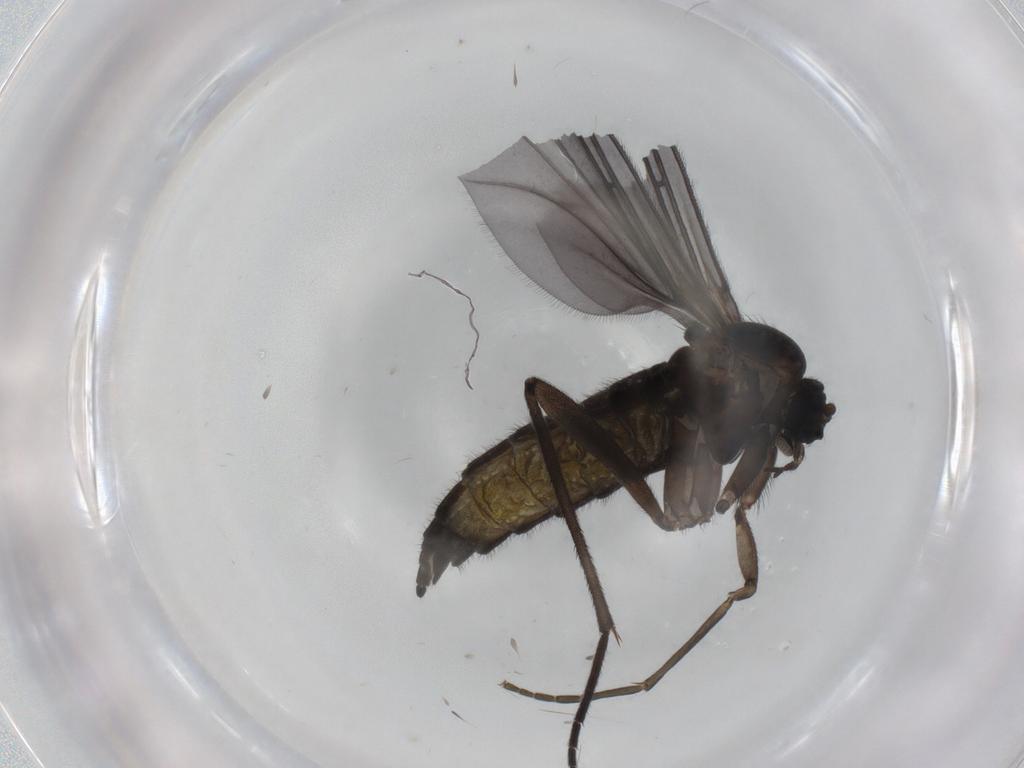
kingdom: Animalia
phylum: Arthropoda
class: Insecta
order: Diptera
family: Sciaridae
